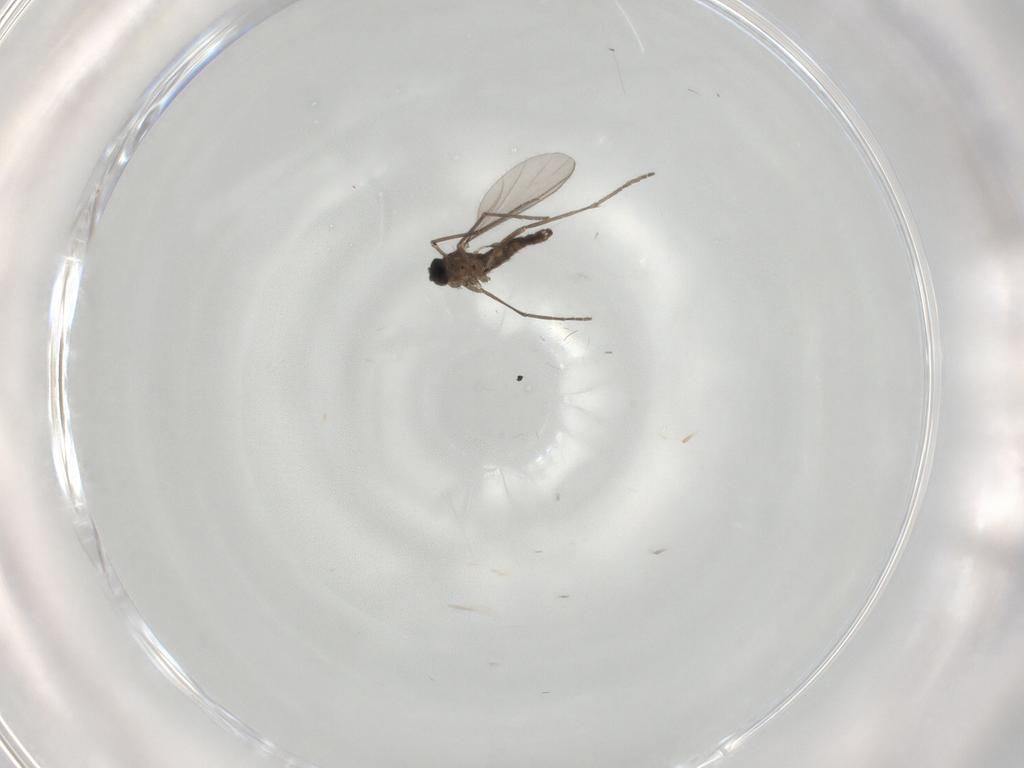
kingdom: Animalia
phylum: Arthropoda
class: Insecta
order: Diptera
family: Sciaridae
